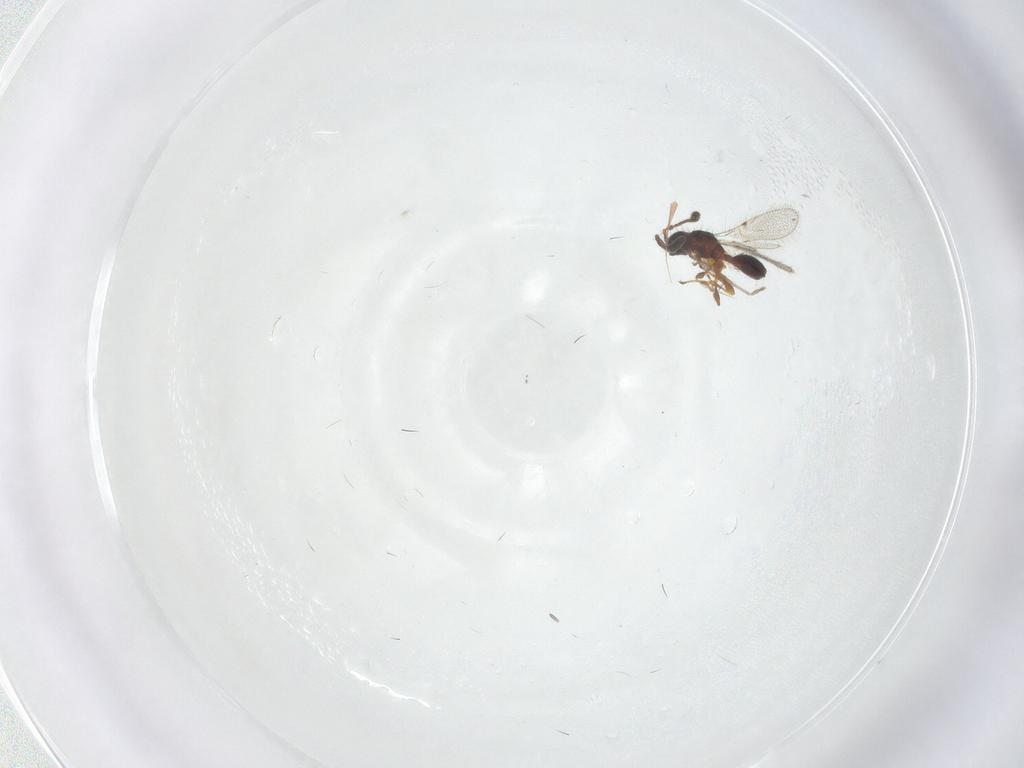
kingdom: Animalia
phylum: Arthropoda
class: Insecta
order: Hymenoptera
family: Diapriidae
